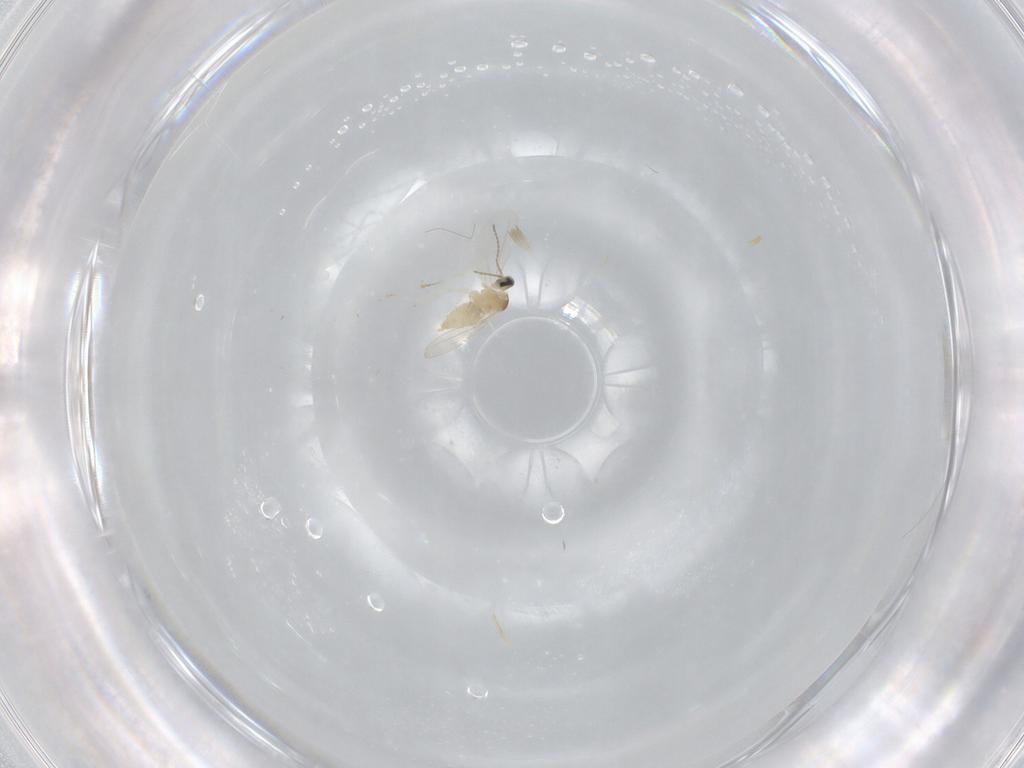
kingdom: Animalia
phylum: Arthropoda
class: Insecta
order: Diptera
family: Cecidomyiidae
